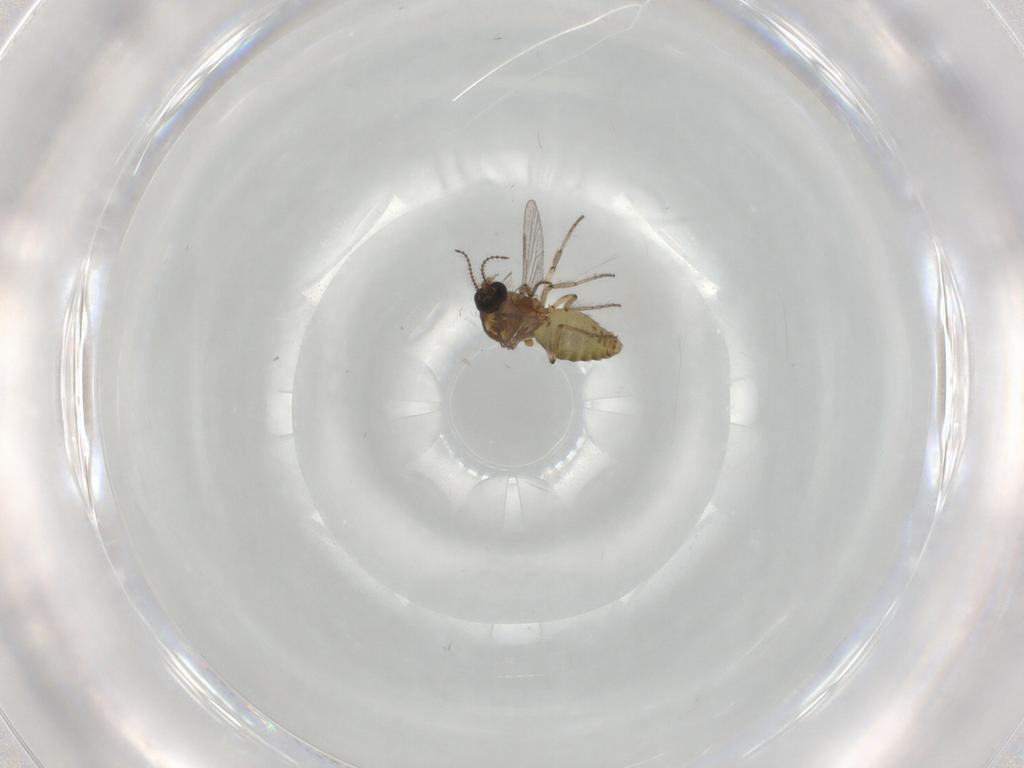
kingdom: Animalia
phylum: Arthropoda
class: Insecta
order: Diptera
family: Ceratopogonidae
